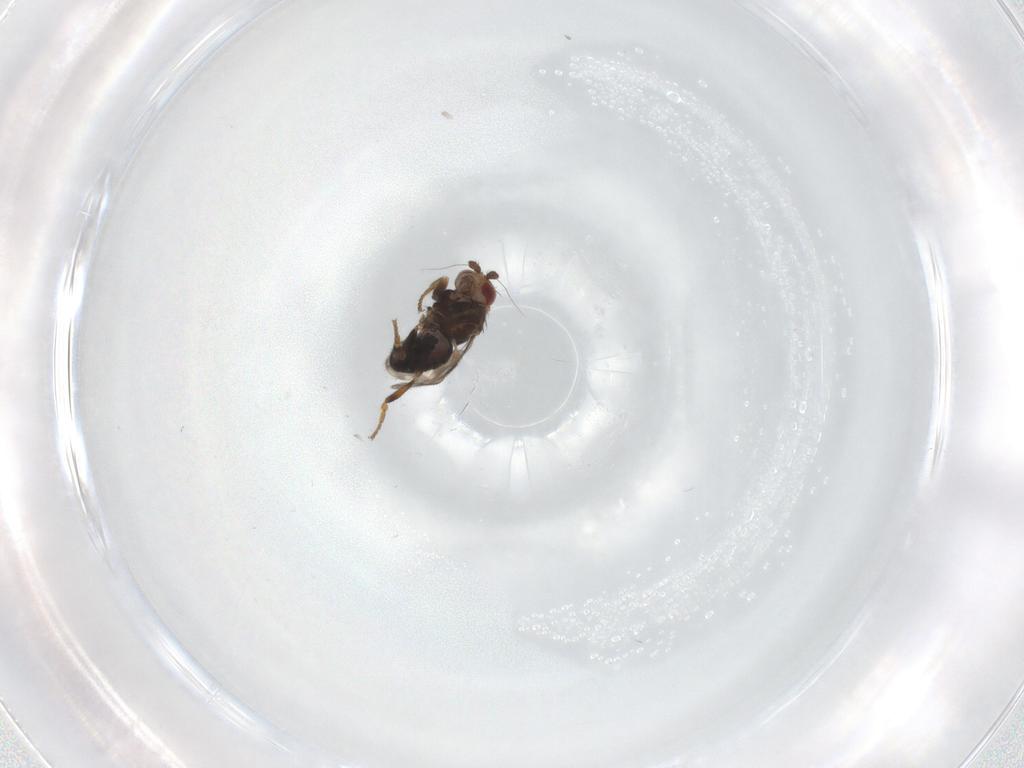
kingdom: Animalia
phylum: Arthropoda
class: Insecta
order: Diptera
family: Sphaeroceridae
